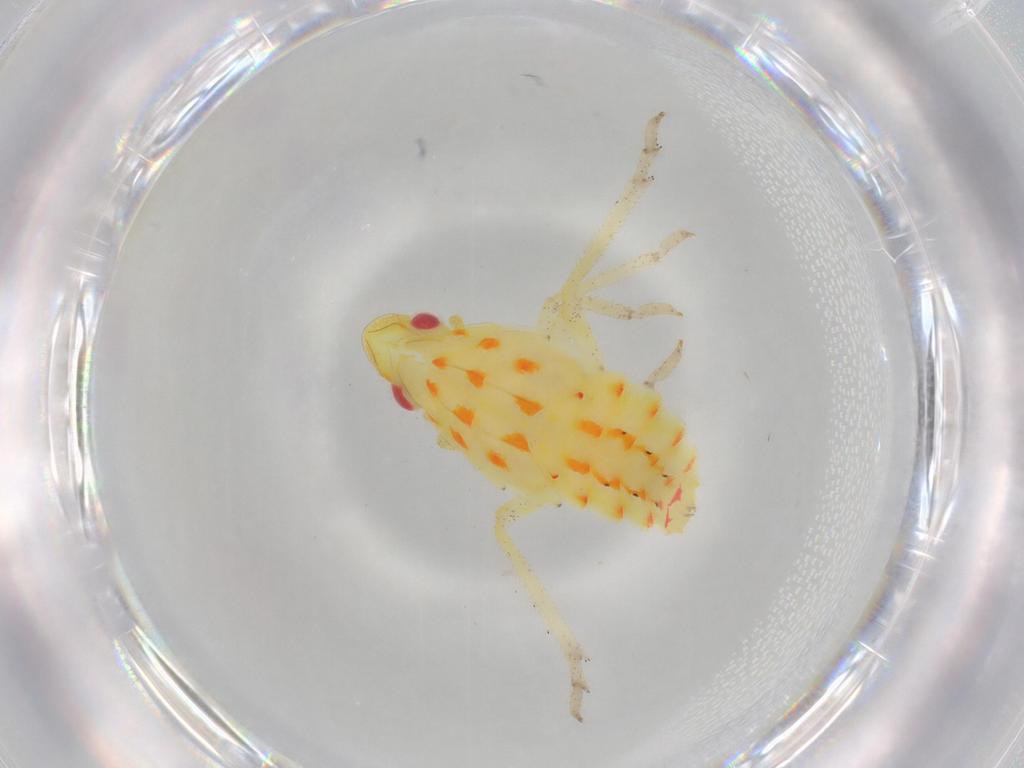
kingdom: Animalia
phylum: Arthropoda
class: Insecta
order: Hemiptera
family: Tropiduchidae
